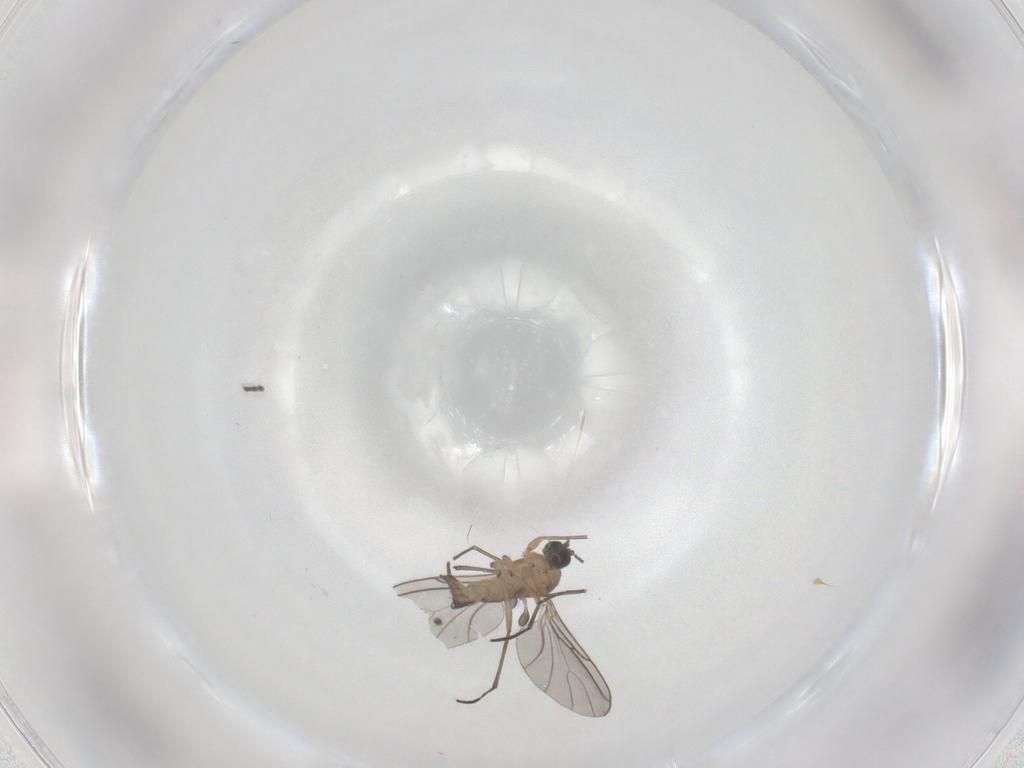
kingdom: Animalia
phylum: Arthropoda
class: Insecta
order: Diptera
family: Sciaridae
